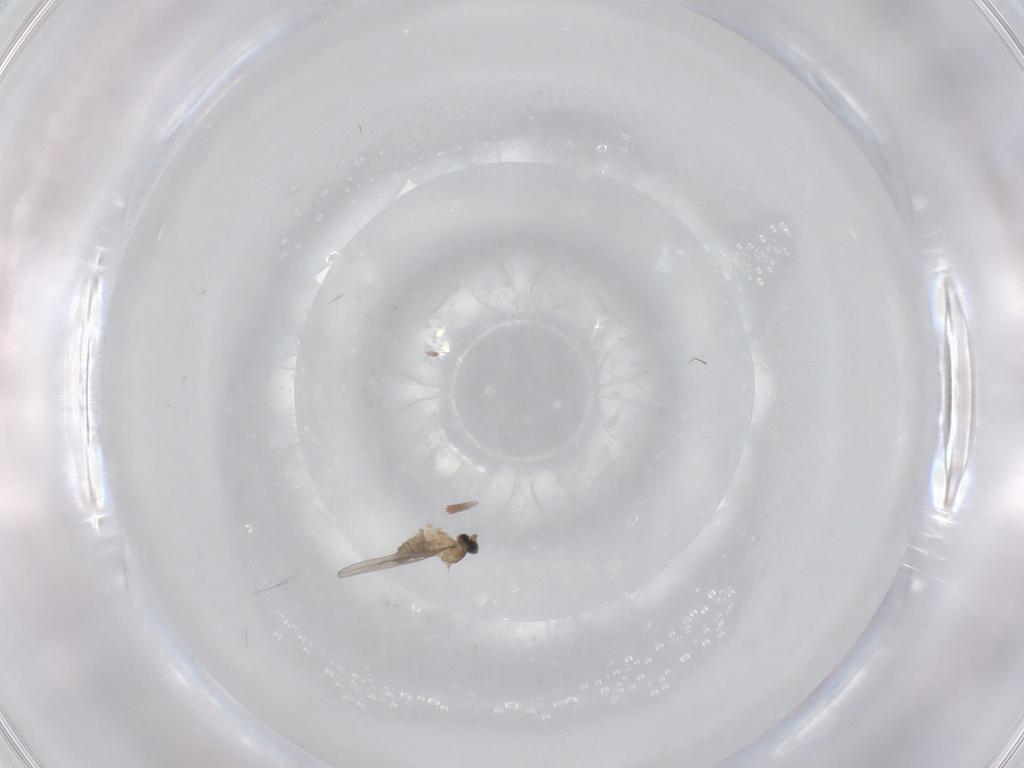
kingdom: Animalia
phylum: Arthropoda
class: Insecta
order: Diptera
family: Cecidomyiidae
